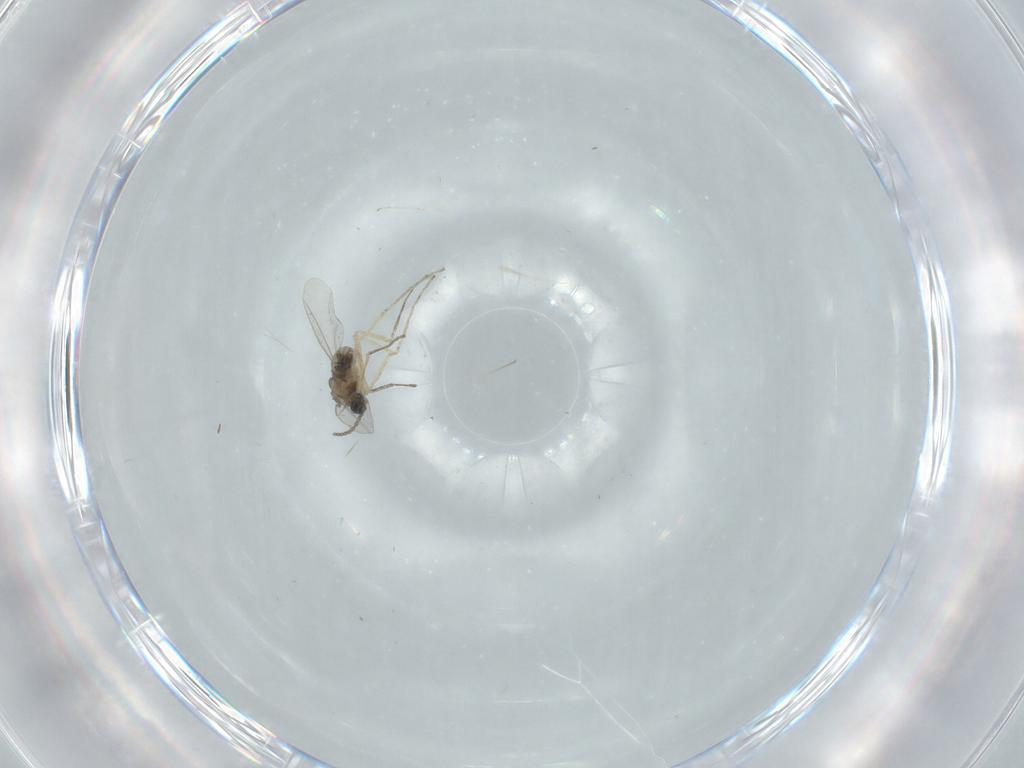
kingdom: Animalia
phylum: Arthropoda
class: Insecta
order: Diptera
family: Cecidomyiidae
